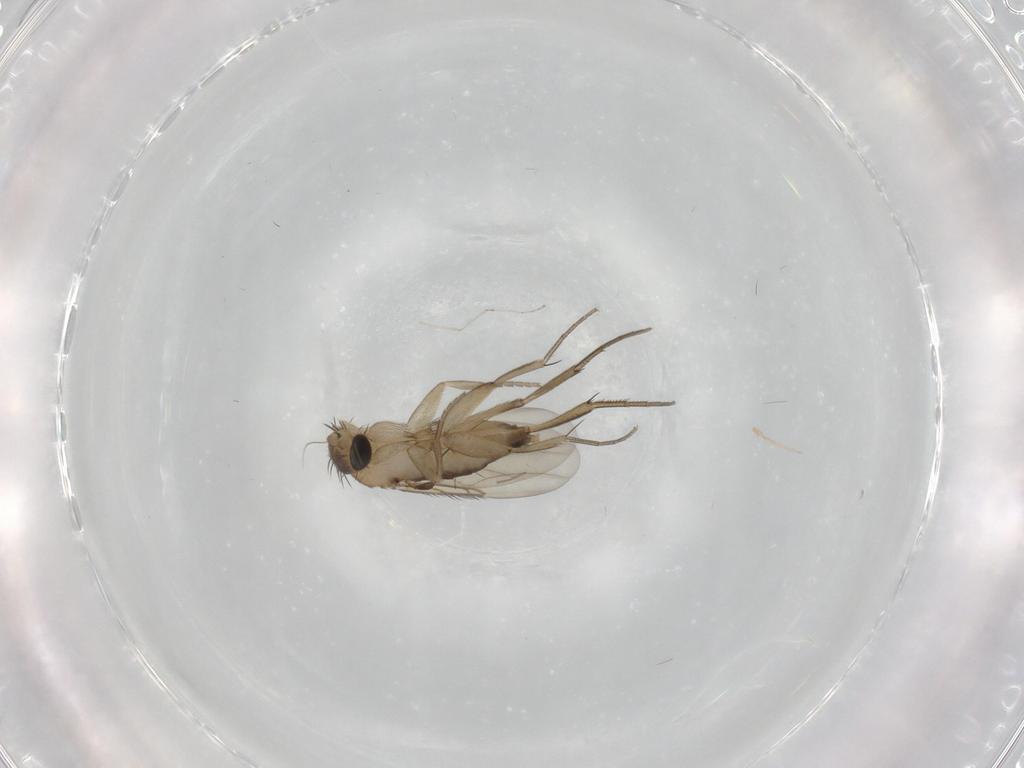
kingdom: Animalia
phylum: Arthropoda
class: Insecta
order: Diptera
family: Phoridae
